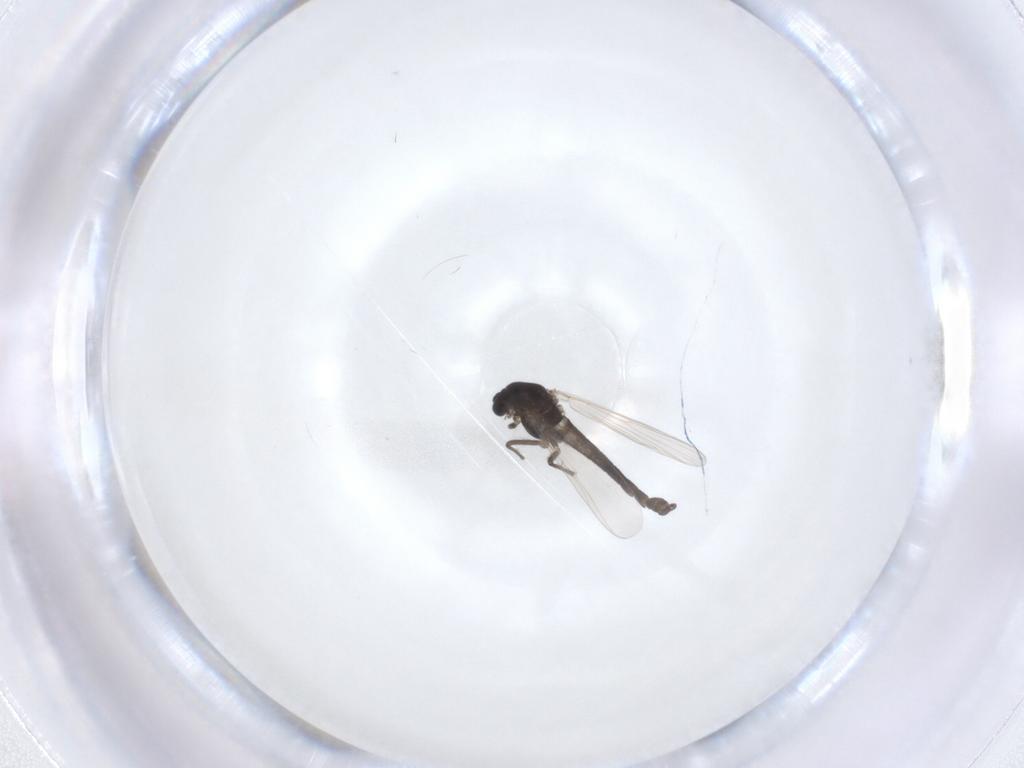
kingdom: Animalia
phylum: Arthropoda
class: Insecta
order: Diptera
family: Chironomidae
